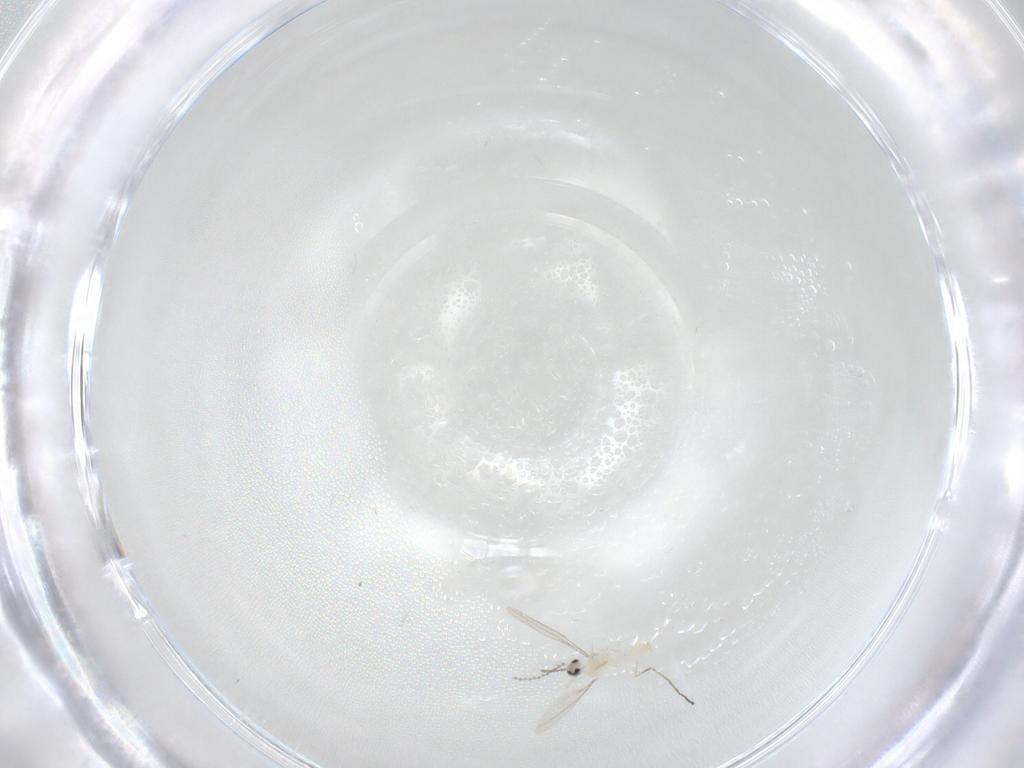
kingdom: Animalia
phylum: Arthropoda
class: Insecta
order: Diptera
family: Cecidomyiidae
